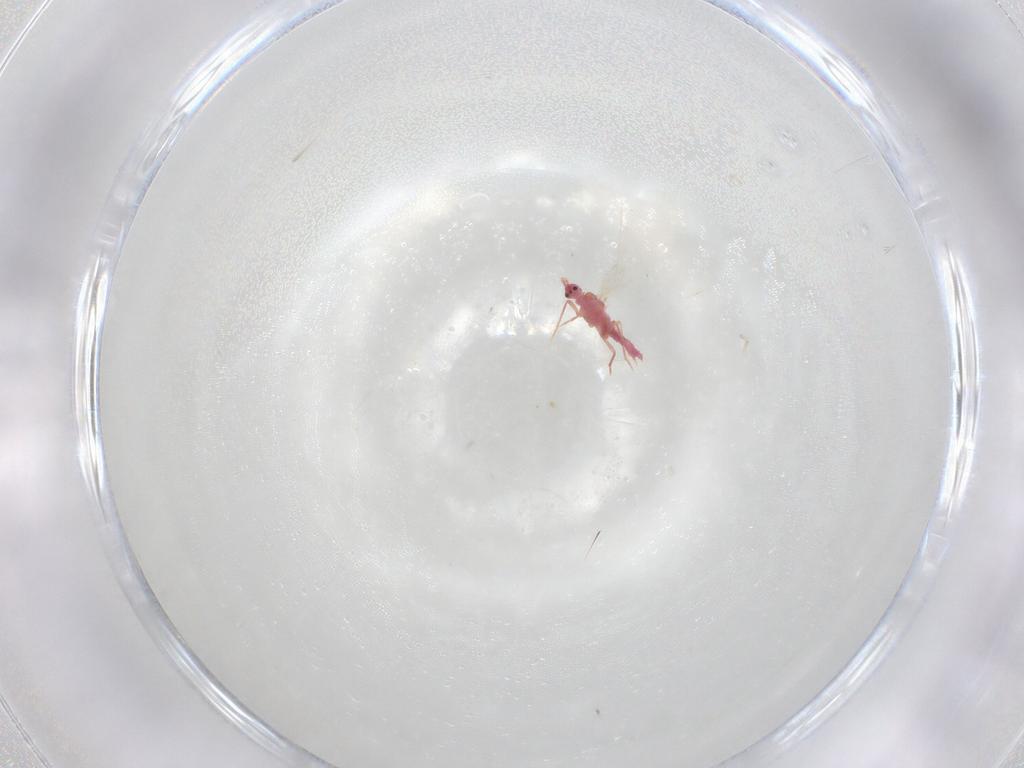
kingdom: Animalia
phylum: Arthropoda
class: Insecta
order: Hemiptera
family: Pseudococcidae
